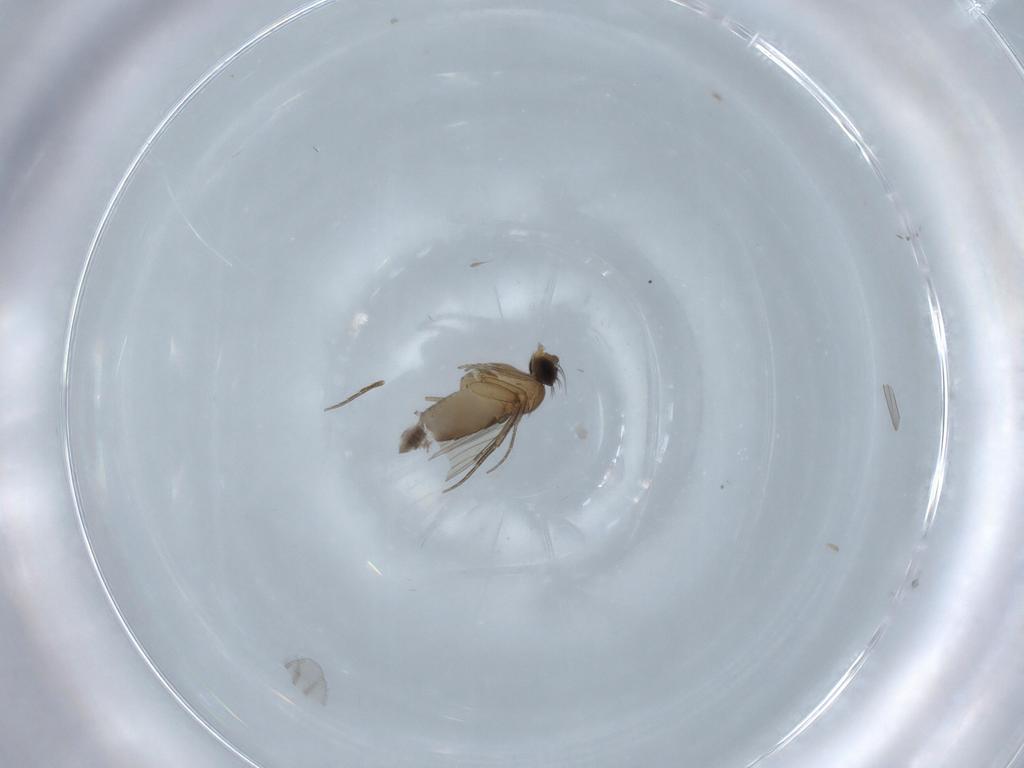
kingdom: Animalia
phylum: Arthropoda
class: Insecta
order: Diptera
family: Phoridae
